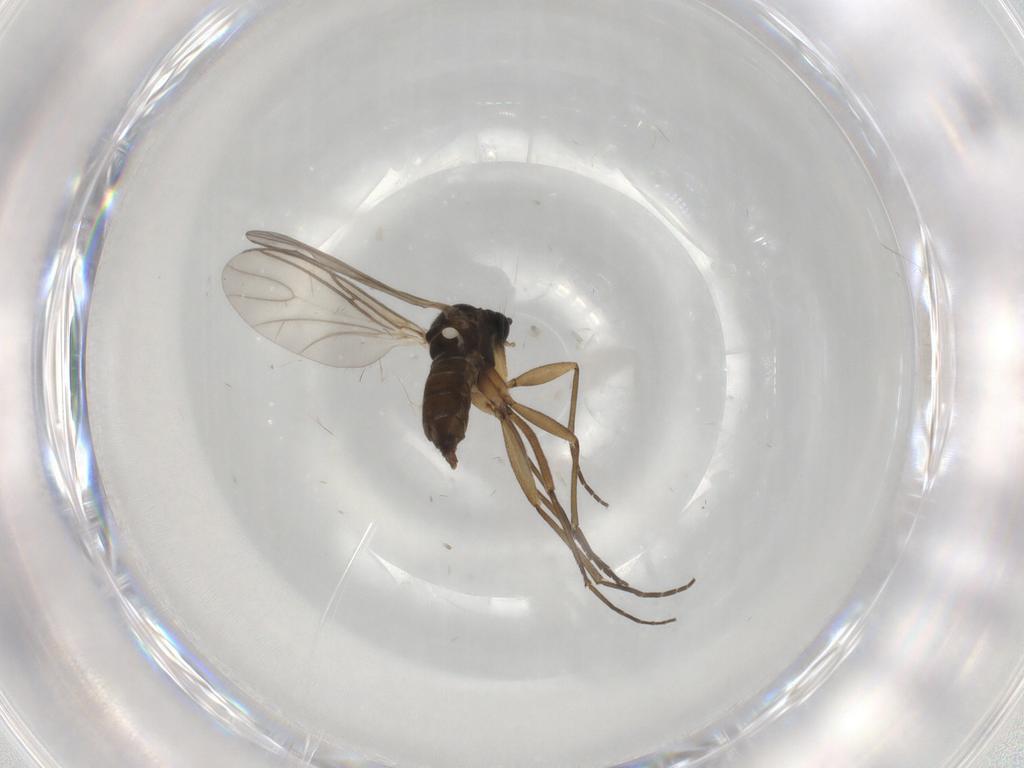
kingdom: Animalia
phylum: Arthropoda
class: Insecta
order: Diptera
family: Sciaridae
